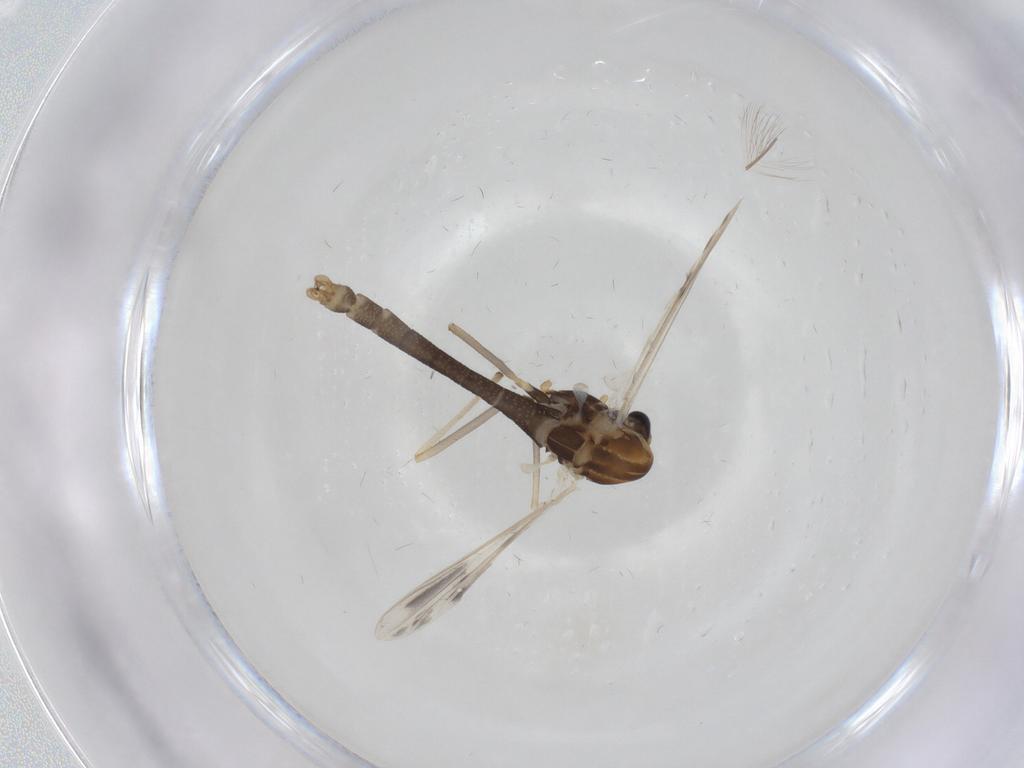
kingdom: Animalia
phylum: Arthropoda
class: Insecta
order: Diptera
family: Chironomidae
